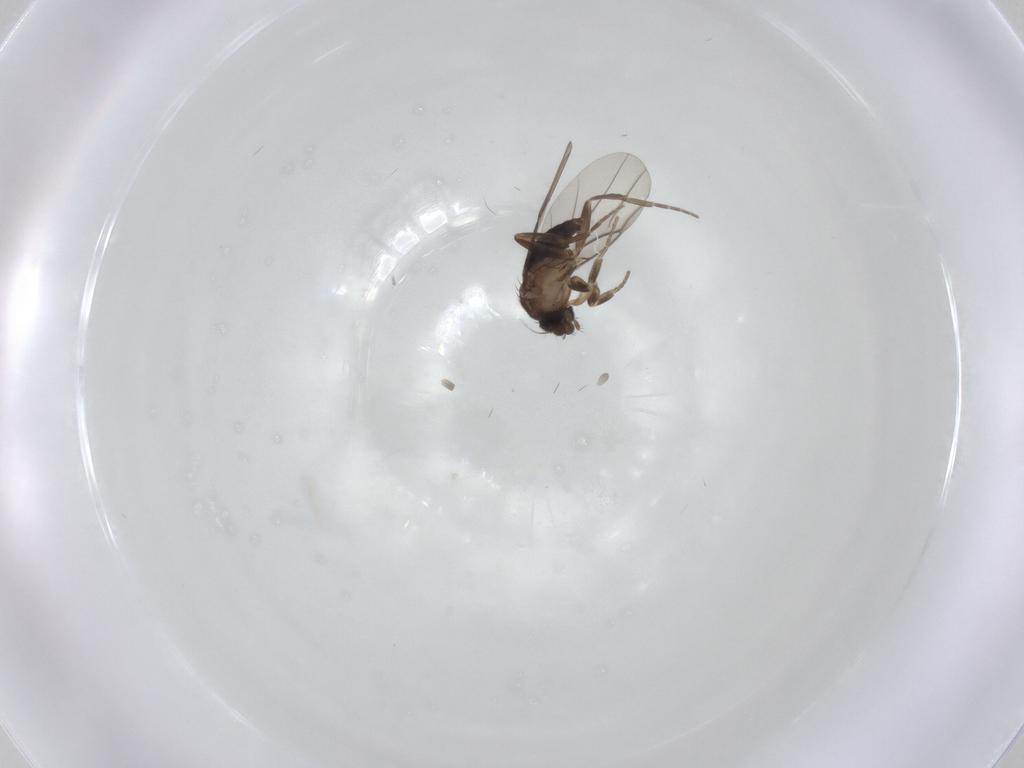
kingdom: Animalia
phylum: Arthropoda
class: Insecta
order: Diptera
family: Phoridae
